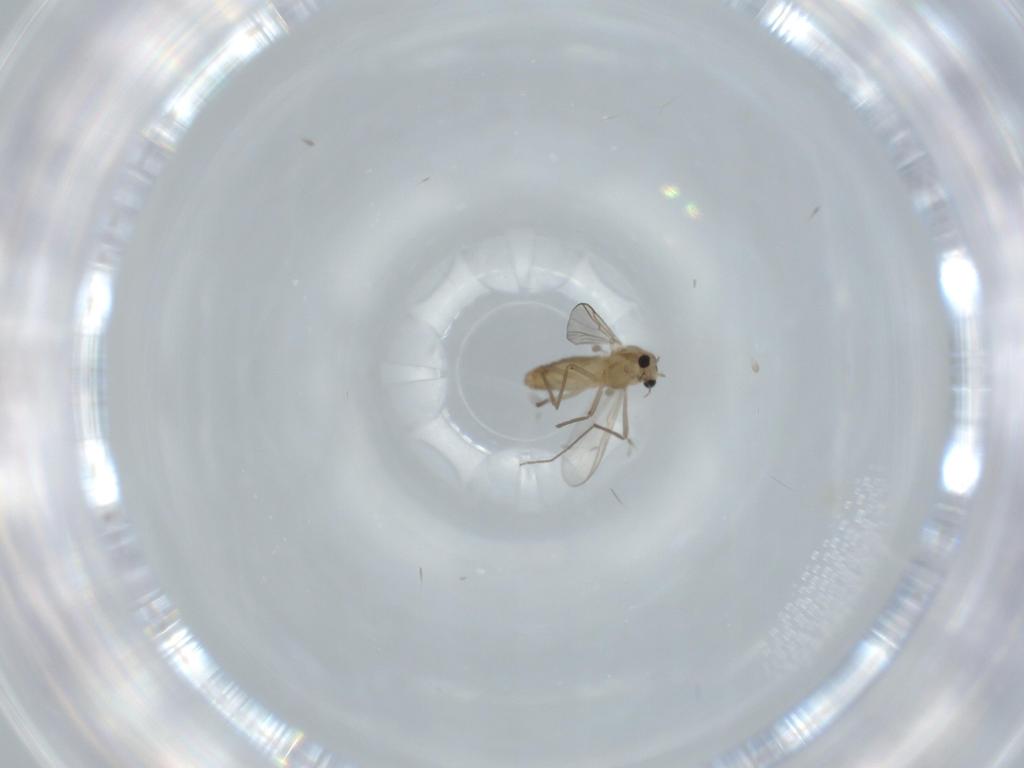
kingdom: Animalia
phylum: Arthropoda
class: Insecta
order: Diptera
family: Chironomidae
